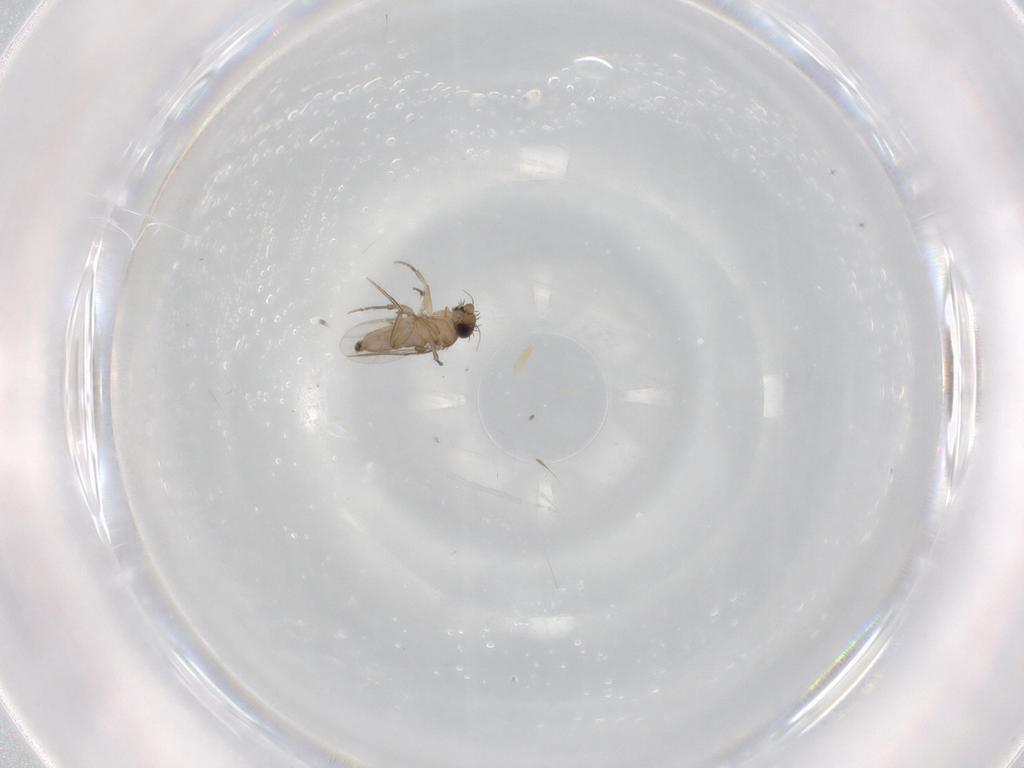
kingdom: Animalia
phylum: Arthropoda
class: Insecta
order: Diptera
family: Phoridae
